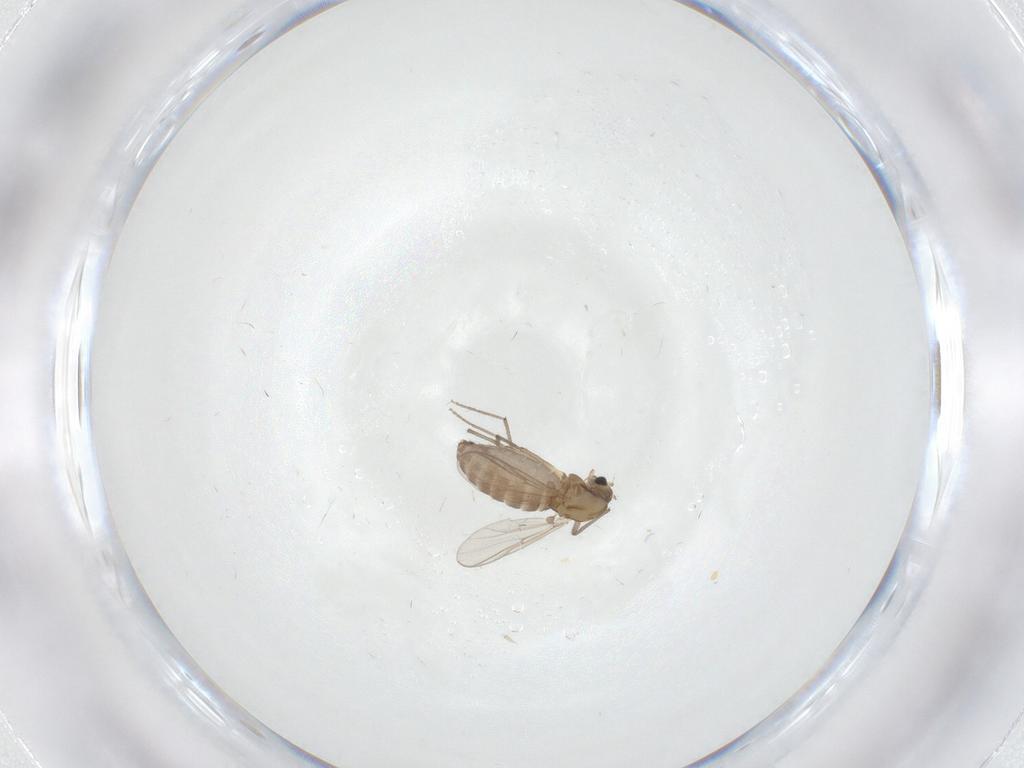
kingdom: Animalia
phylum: Arthropoda
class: Insecta
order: Diptera
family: Chironomidae
